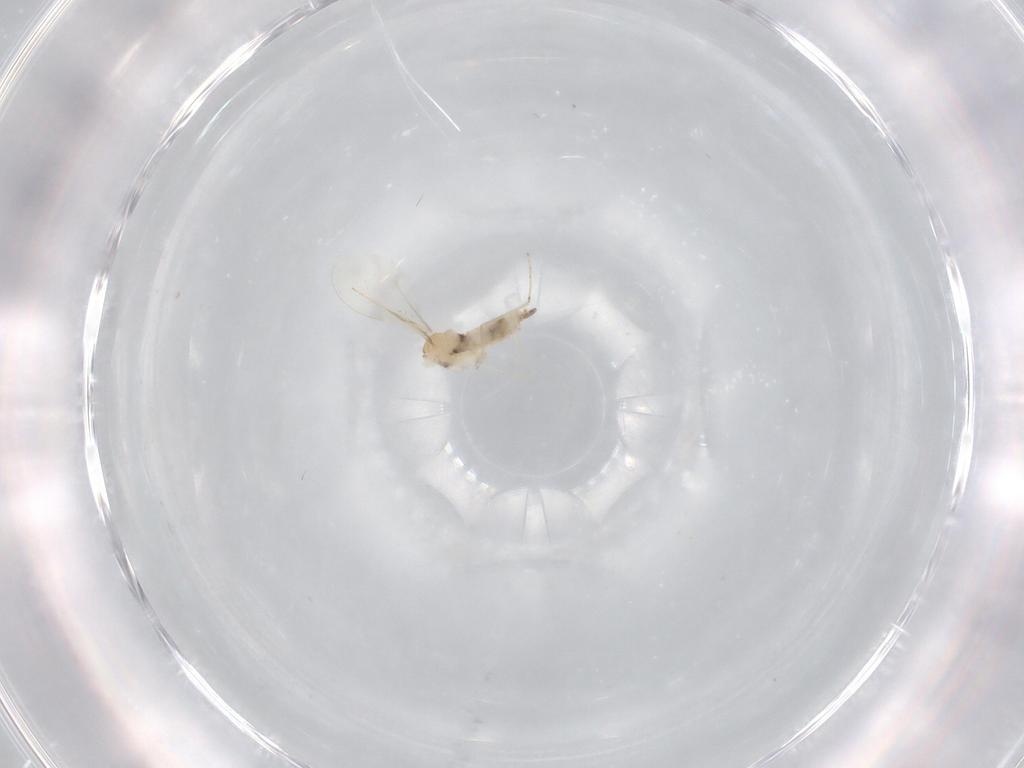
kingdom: Animalia
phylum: Arthropoda
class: Insecta
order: Diptera
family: Cecidomyiidae
